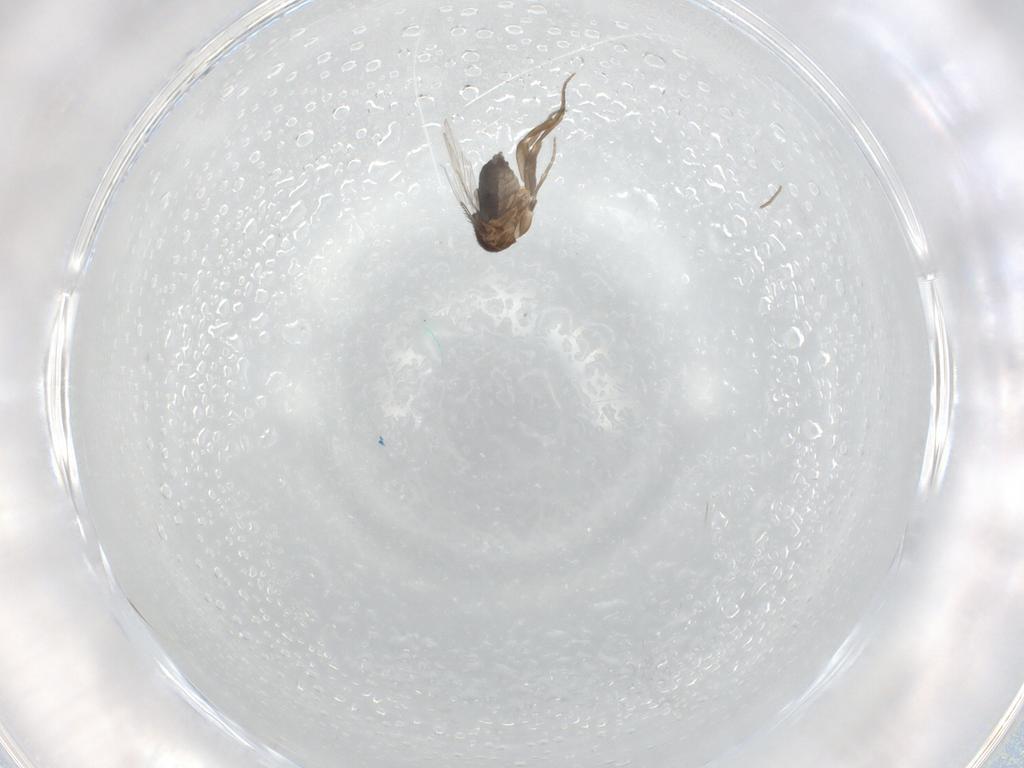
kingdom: Animalia
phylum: Arthropoda
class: Insecta
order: Diptera
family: Phoridae
